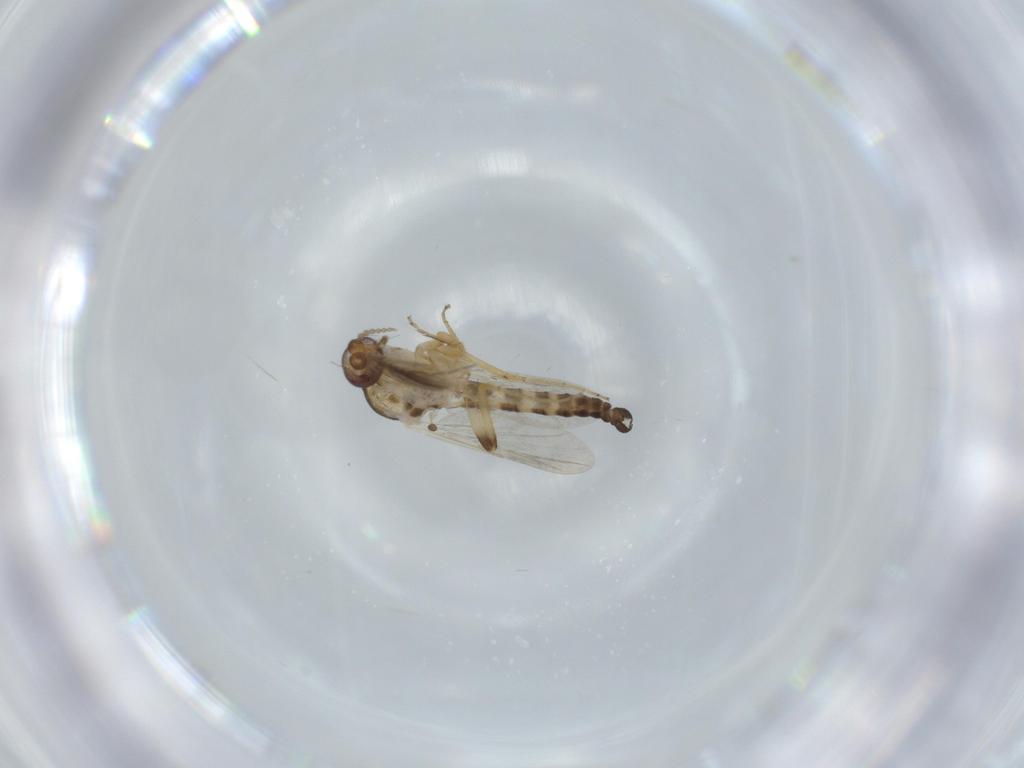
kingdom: Animalia
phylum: Arthropoda
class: Insecta
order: Diptera
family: Ceratopogonidae
